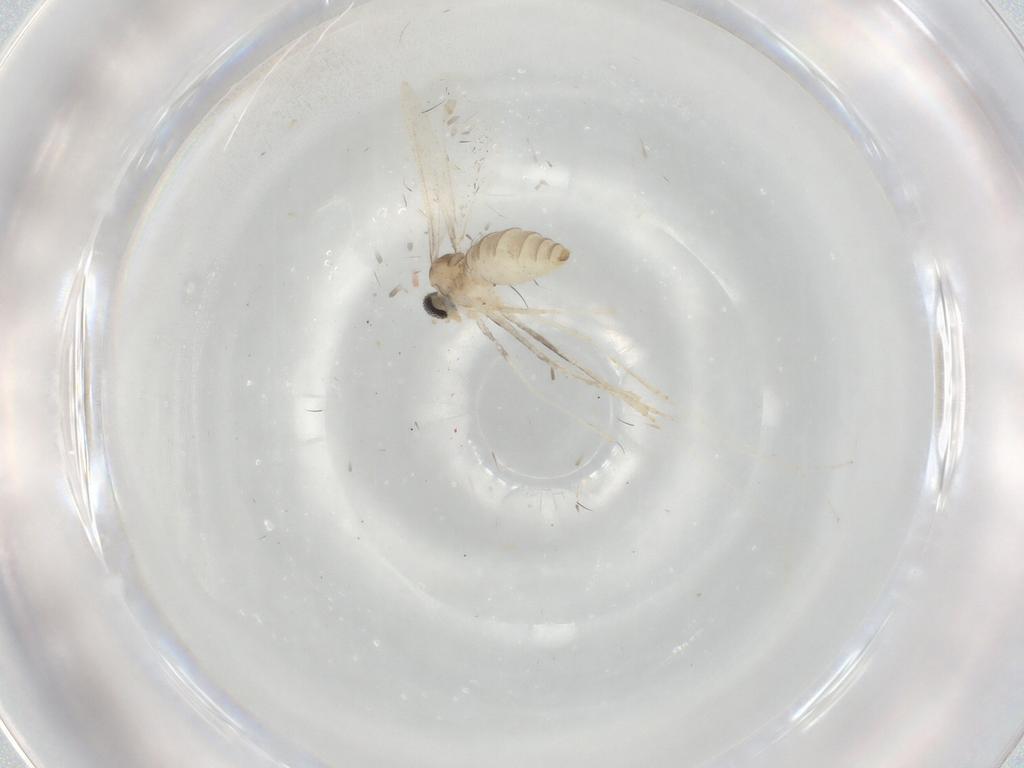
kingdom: Animalia
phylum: Arthropoda
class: Insecta
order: Diptera
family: Cecidomyiidae
